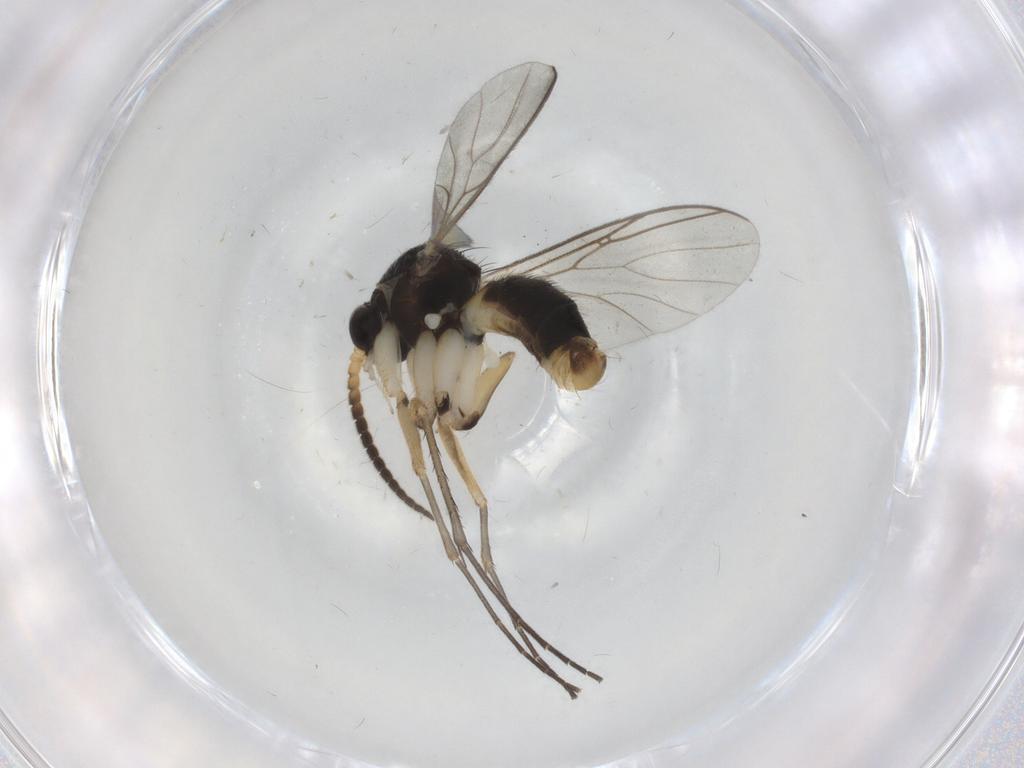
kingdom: Animalia
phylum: Arthropoda
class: Insecta
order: Diptera
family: Mycetophilidae
